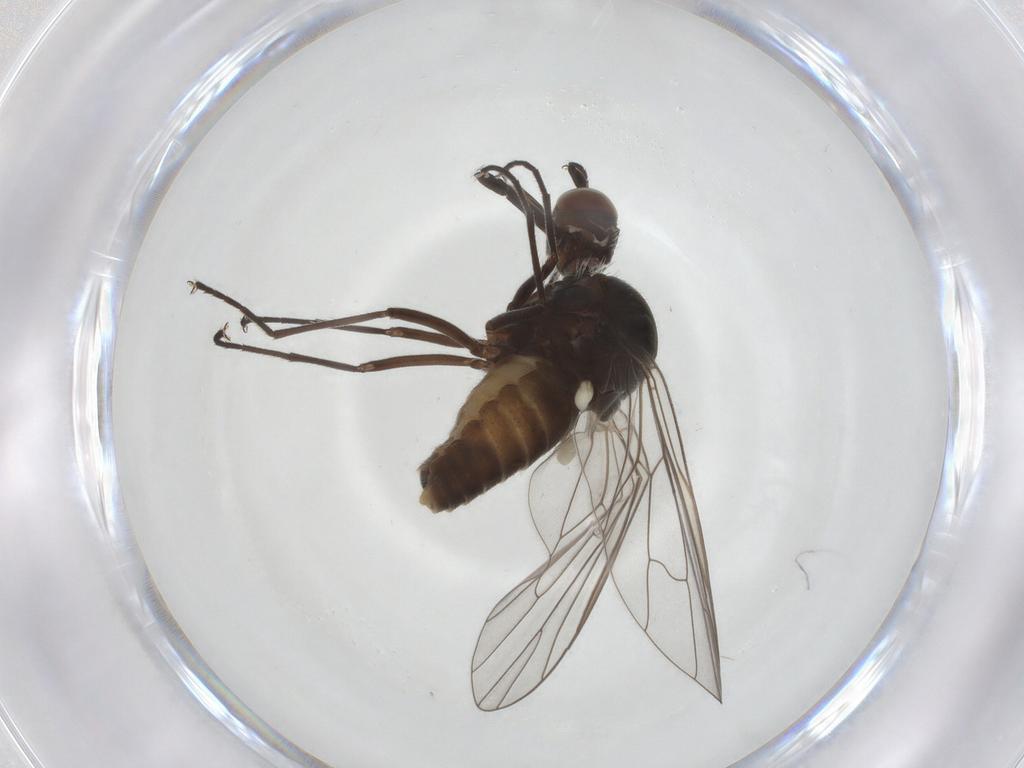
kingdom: Animalia
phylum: Arthropoda
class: Insecta
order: Diptera
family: Bombyliidae
